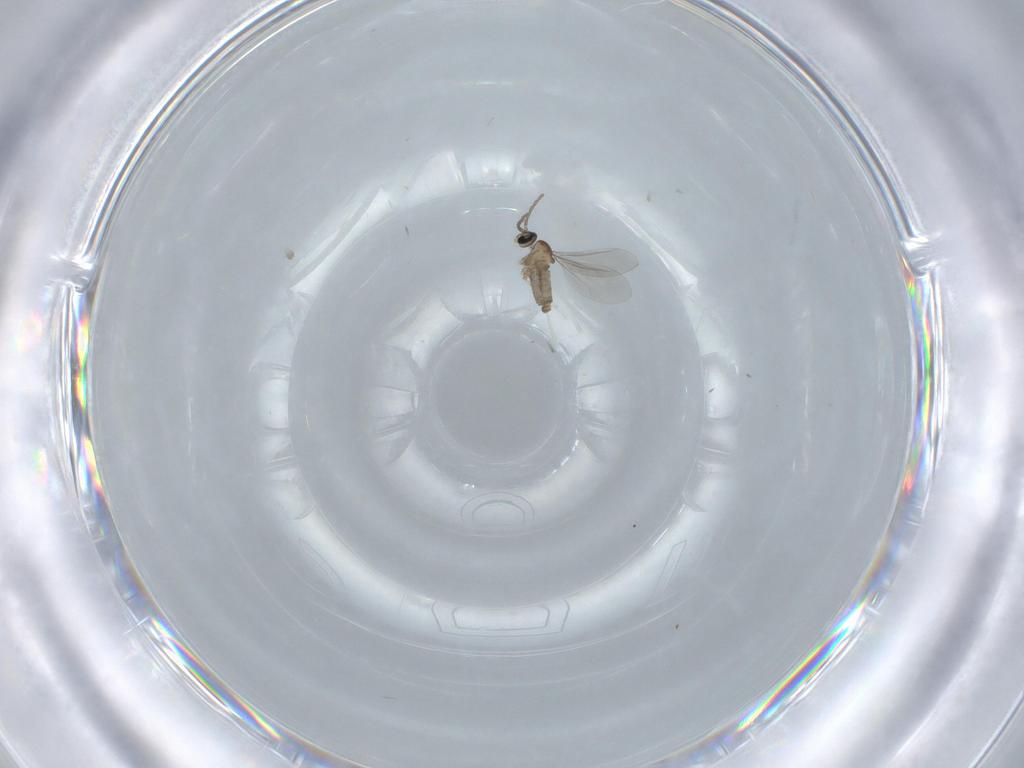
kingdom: Animalia
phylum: Arthropoda
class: Insecta
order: Diptera
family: Cecidomyiidae
